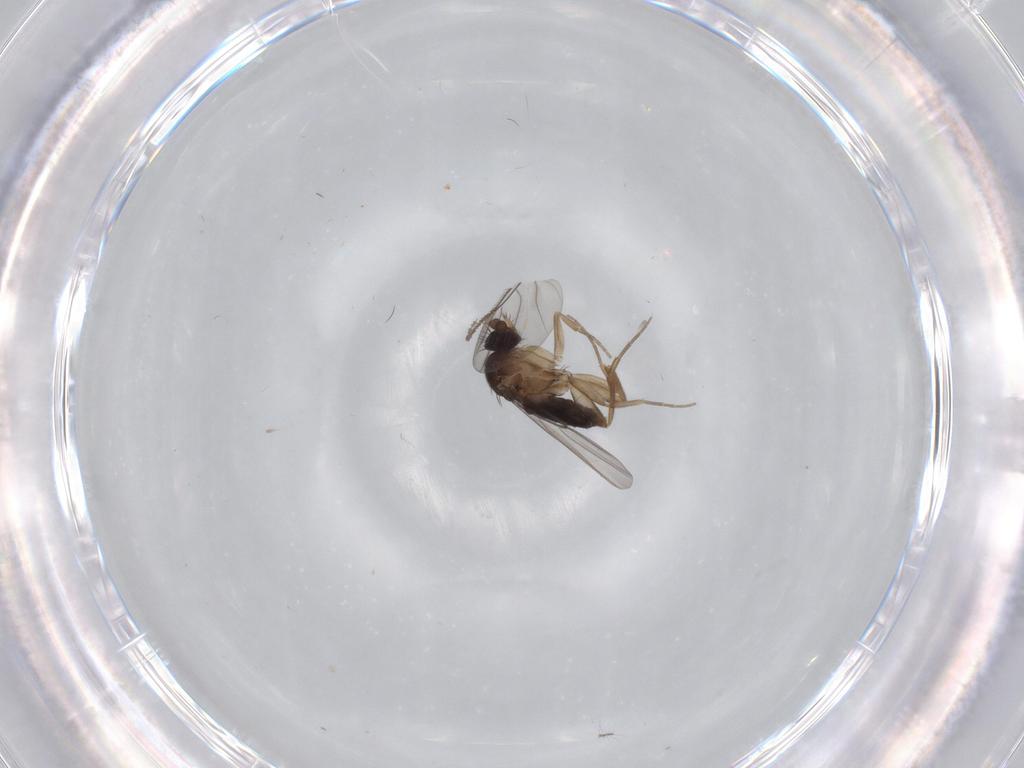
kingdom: Animalia
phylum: Arthropoda
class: Insecta
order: Diptera
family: Phoridae
